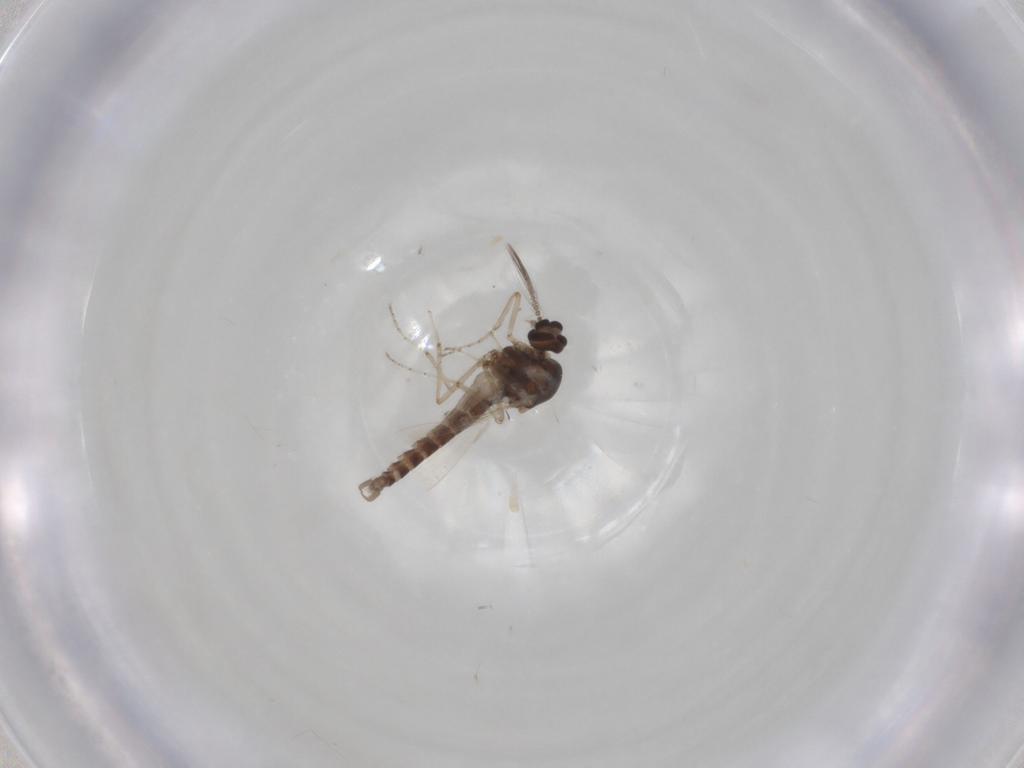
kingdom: Animalia
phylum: Arthropoda
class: Insecta
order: Diptera
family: Ceratopogonidae
